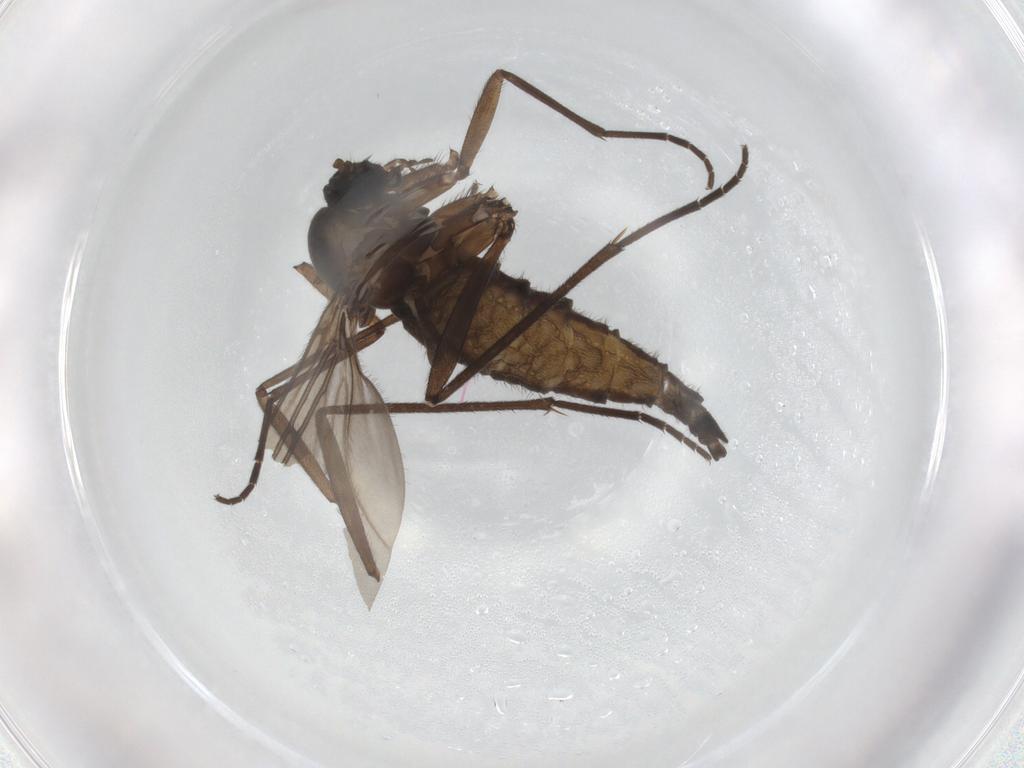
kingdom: Animalia
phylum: Arthropoda
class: Insecta
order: Diptera
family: Sciaridae
